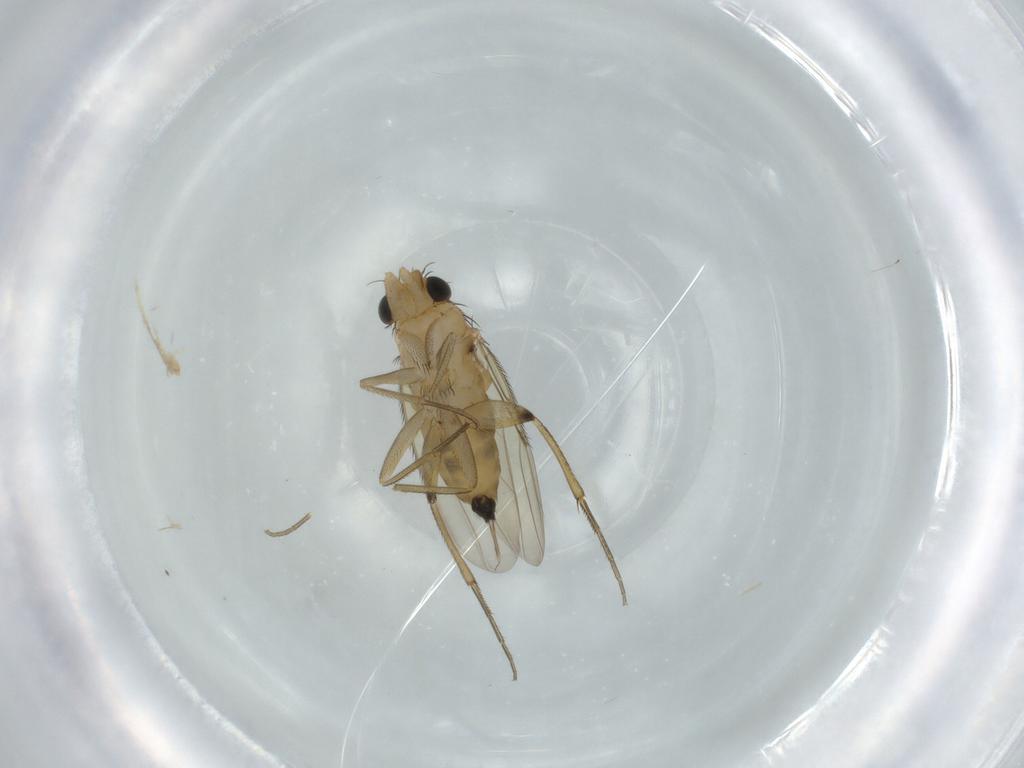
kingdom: Animalia
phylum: Arthropoda
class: Insecta
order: Diptera
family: Phoridae
